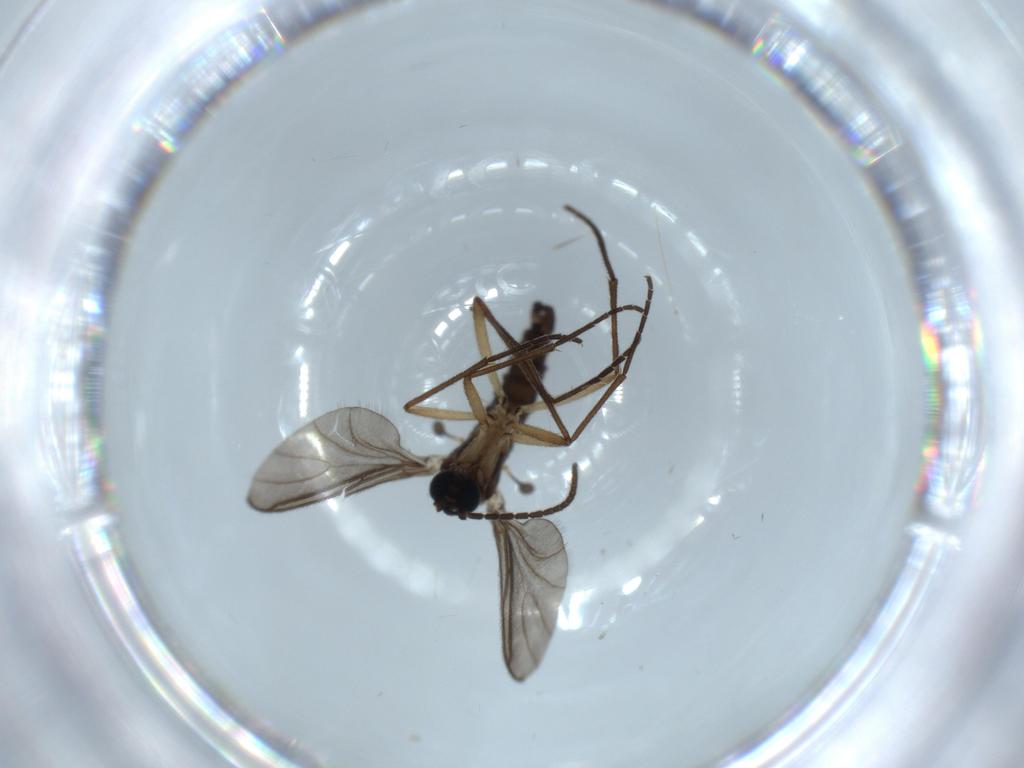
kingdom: Animalia
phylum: Arthropoda
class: Insecta
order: Diptera
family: Sciaridae
